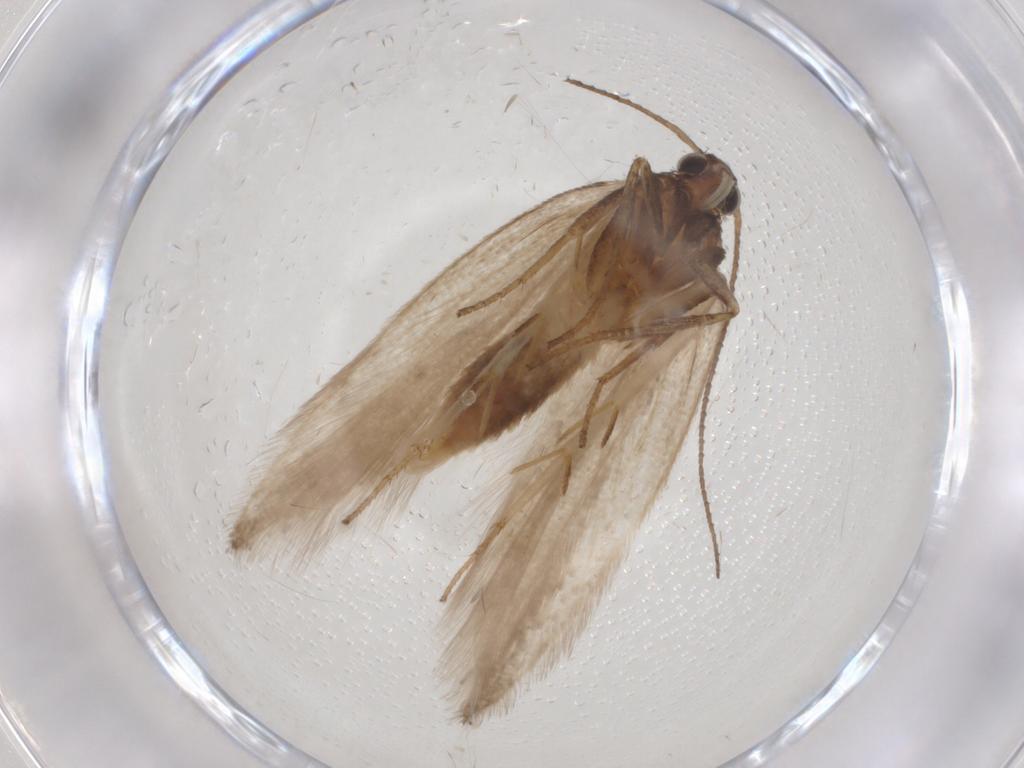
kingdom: Animalia
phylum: Arthropoda
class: Insecta
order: Lepidoptera
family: Gelechiidae
